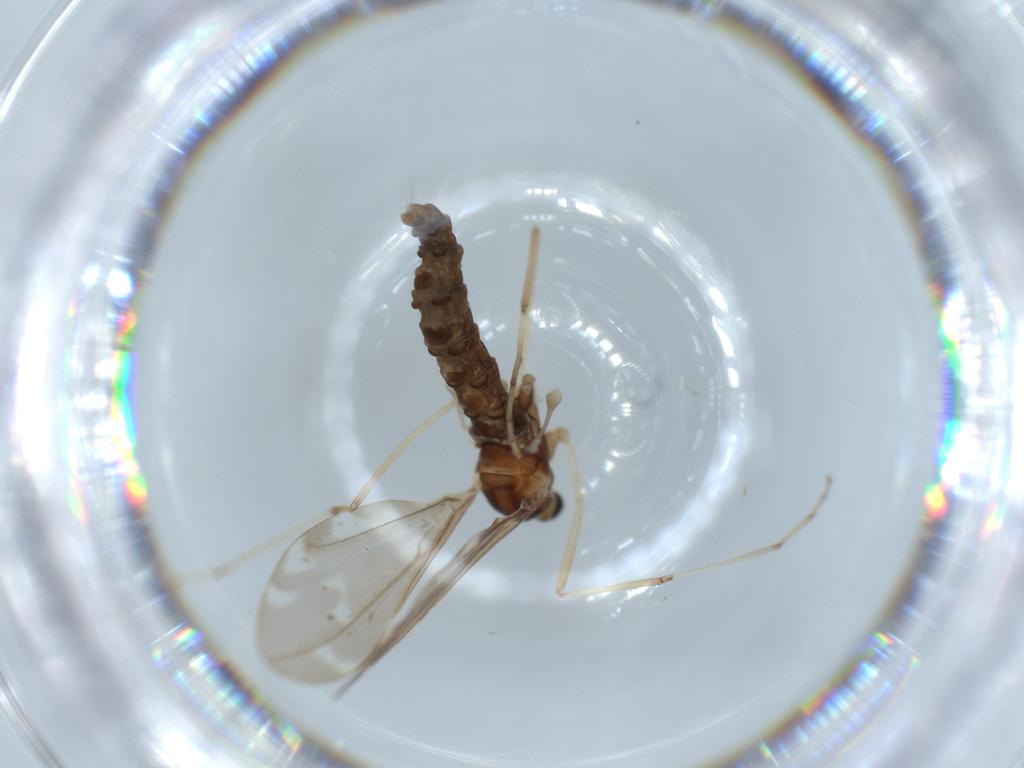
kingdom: Animalia
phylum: Arthropoda
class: Insecta
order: Diptera
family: Cecidomyiidae
